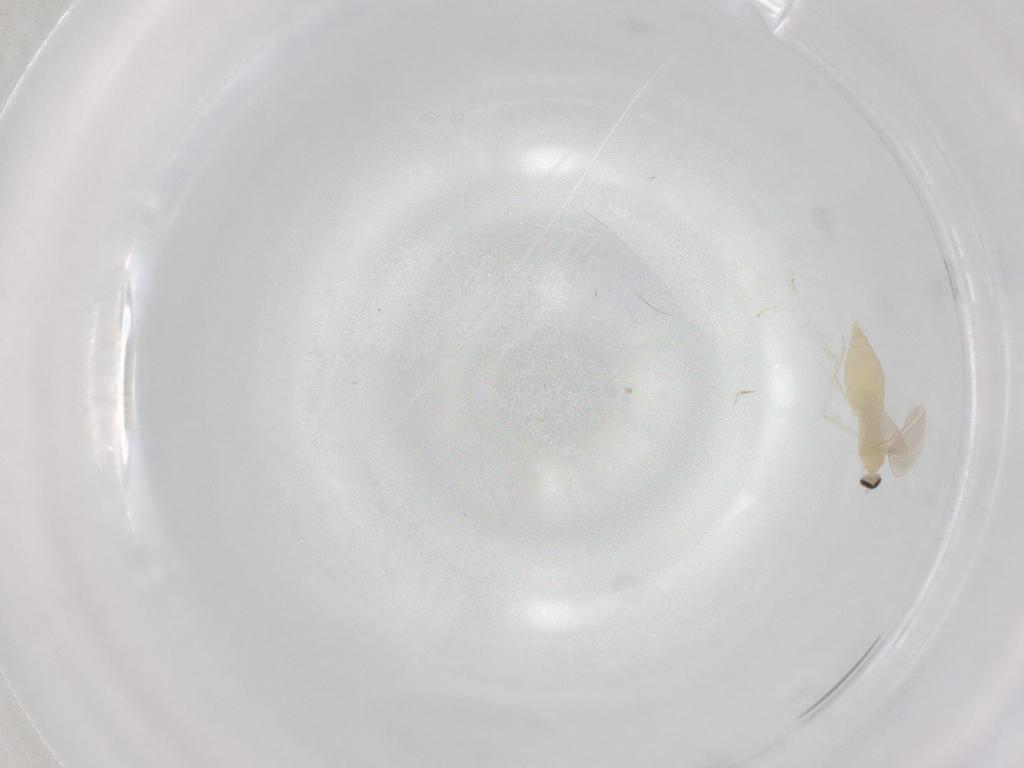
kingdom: Animalia
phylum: Arthropoda
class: Insecta
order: Diptera
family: Cecidomyiidae
